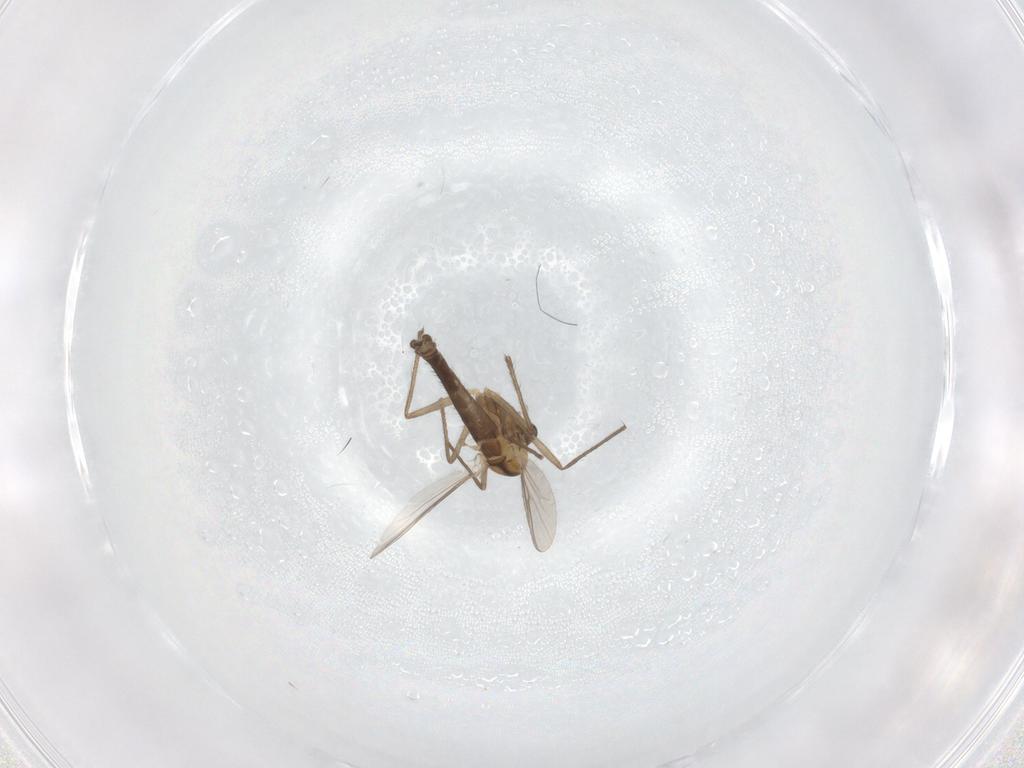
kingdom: Animalia
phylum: Arthropoda
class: Insecta
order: Diptera
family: Chironomidae
